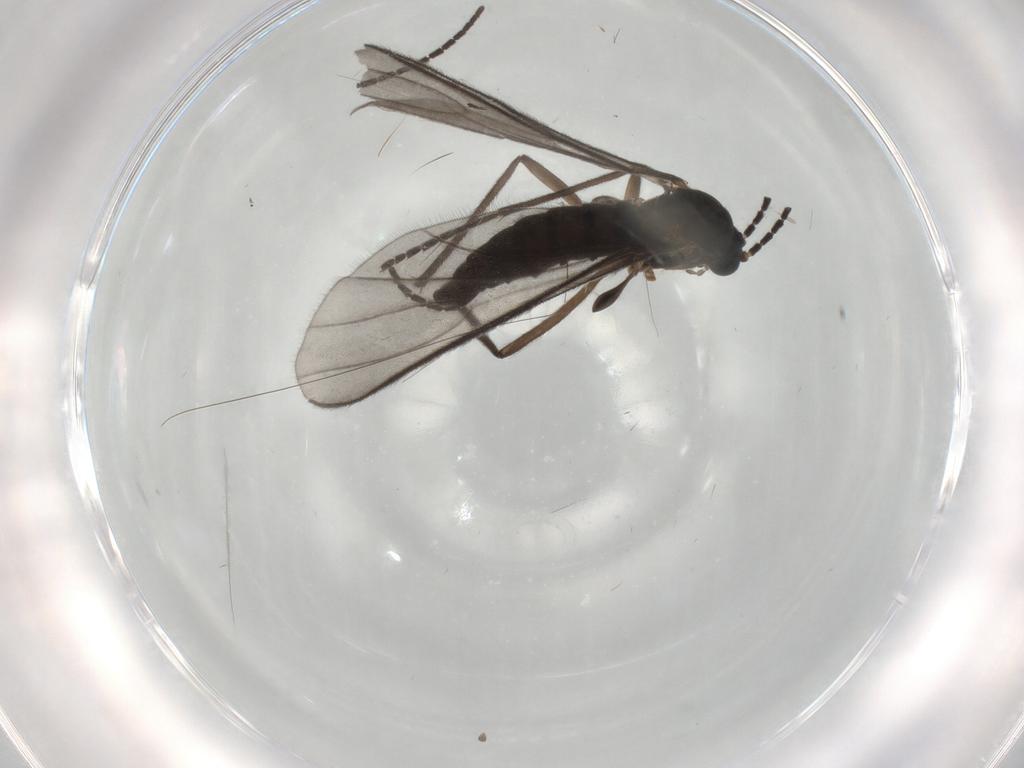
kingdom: Animalia
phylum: Arthropoda
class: Insecta
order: Diptera
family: Sciaridae
